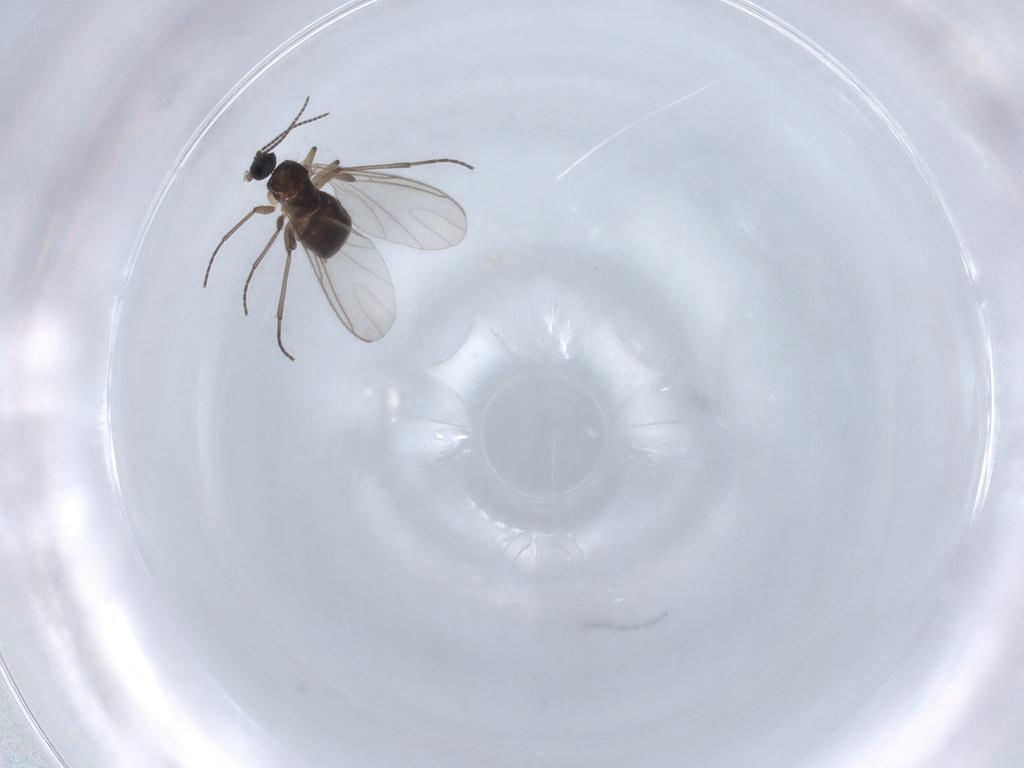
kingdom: Animalia
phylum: Arthropoda
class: Insecta
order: Diptera
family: Sciaridae
